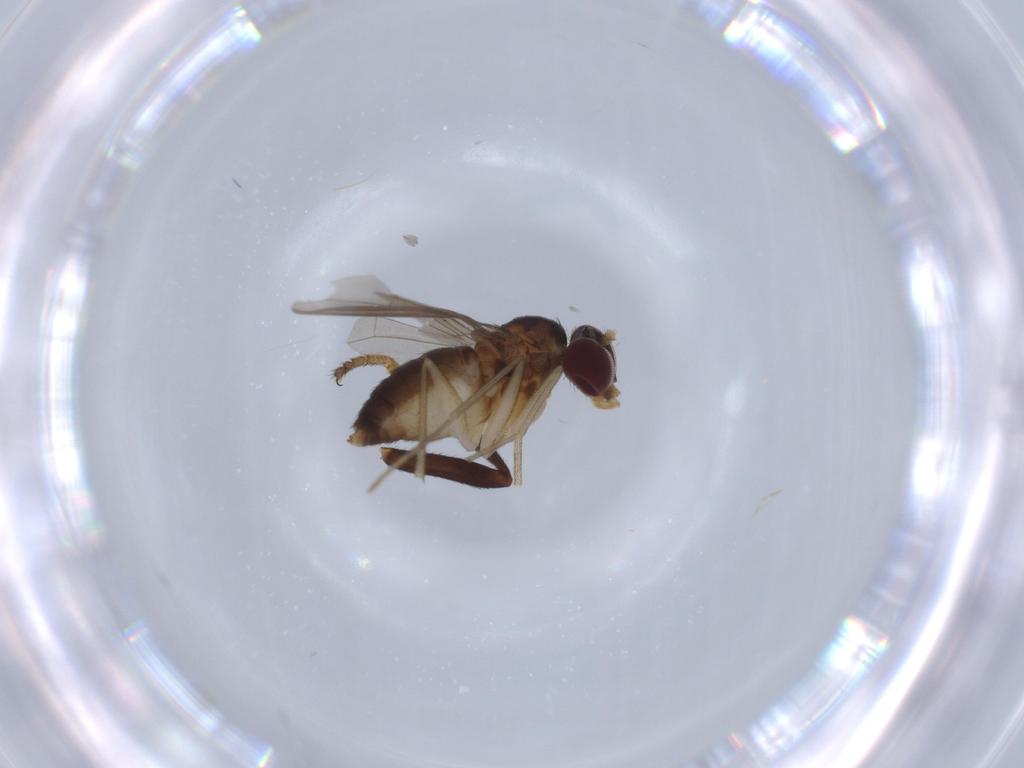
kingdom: Animalia
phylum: Arthropoda
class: Insecta
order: Diptera
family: Dolichopodidae
